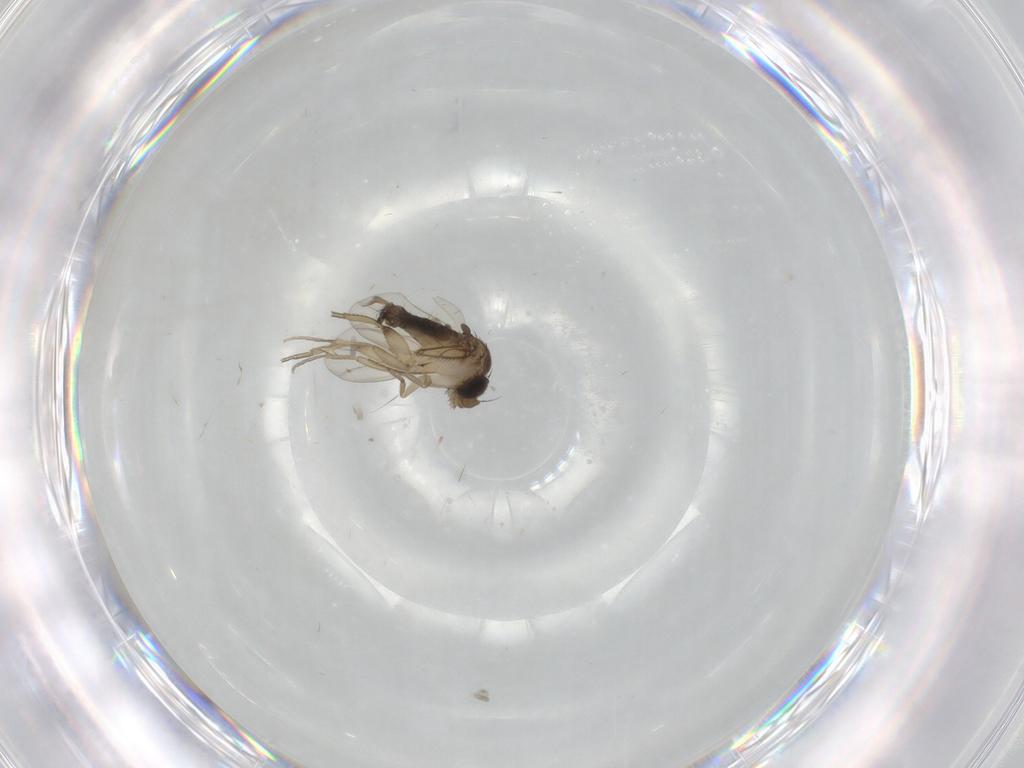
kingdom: Animalia
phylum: Arthropoda
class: Insecta
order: Diptera
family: Cecidomyiidae
